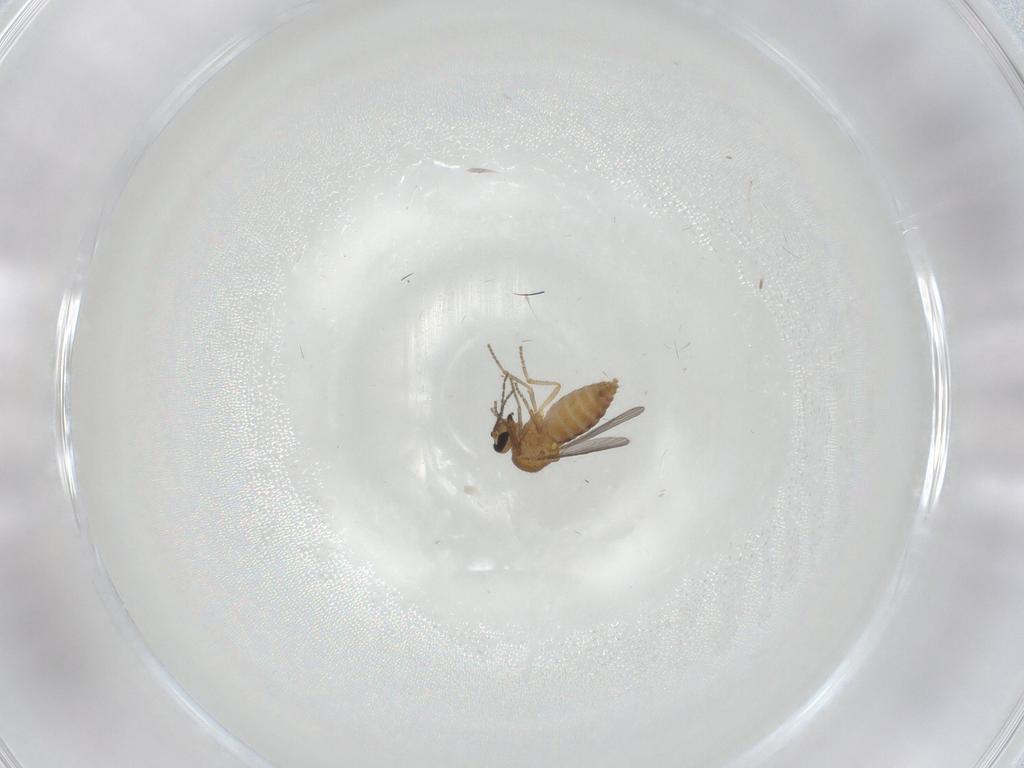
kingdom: Animalia
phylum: Arthropoda
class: Insecta
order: Diptera
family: Ceratopogonidae
